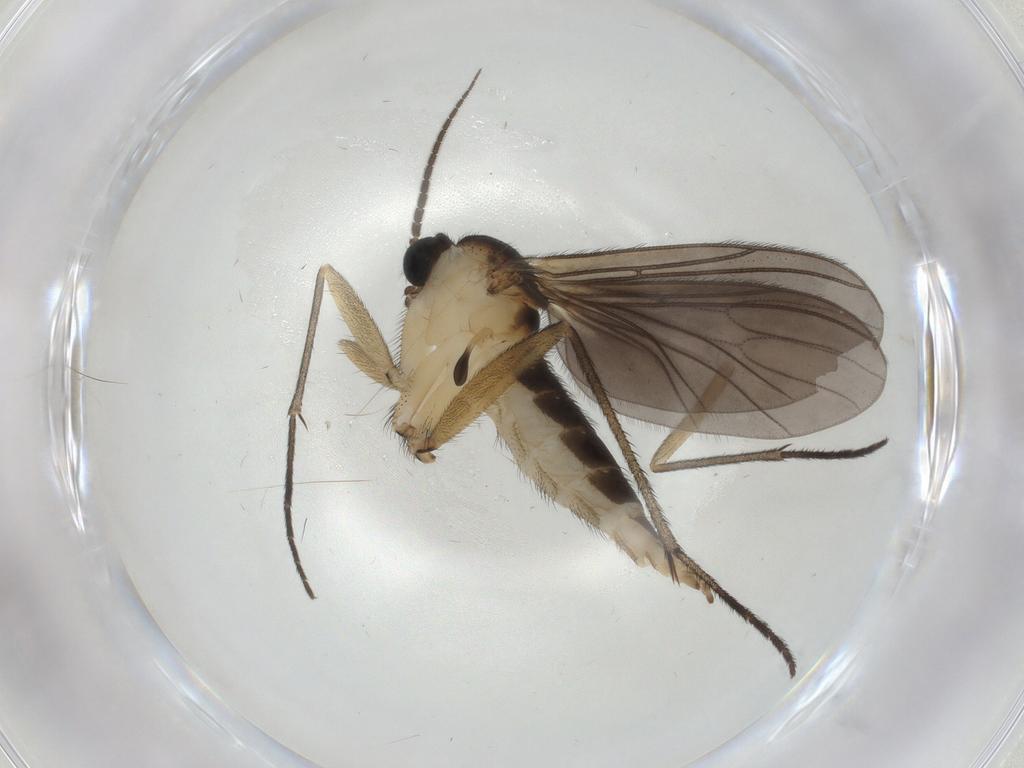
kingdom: Animalia
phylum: Arthropoda
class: Insecta
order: Diptera
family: Sciaridae
